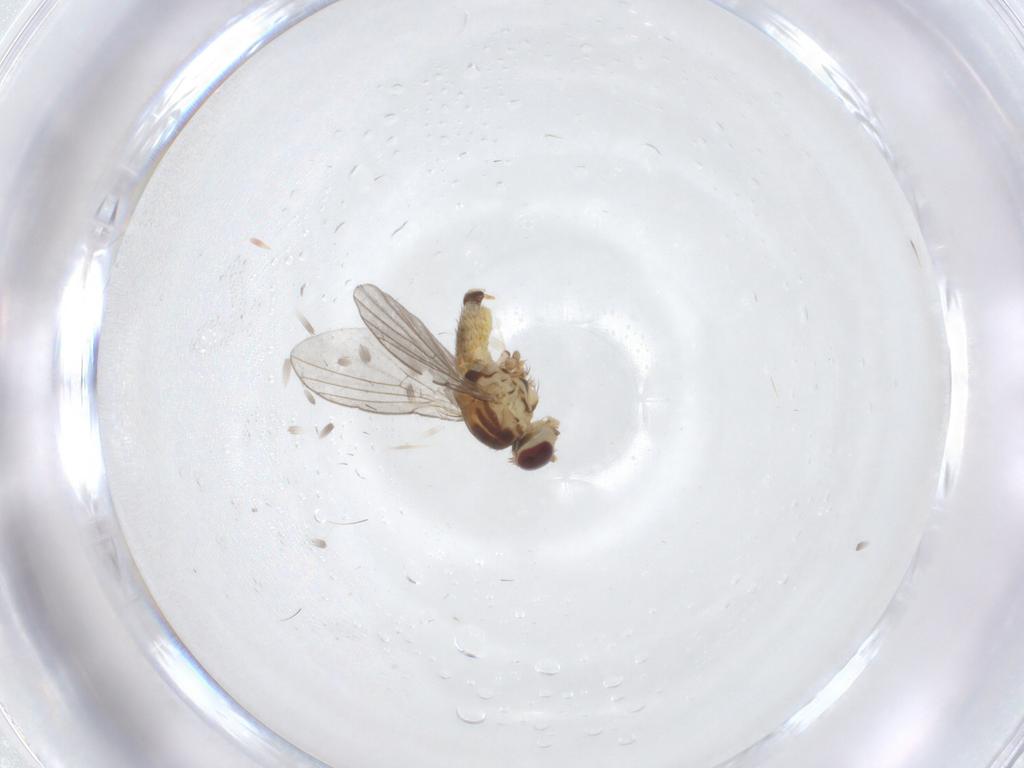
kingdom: Animalia
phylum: Arthropoda
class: Insecta
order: Diptera
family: Agromyzidae
